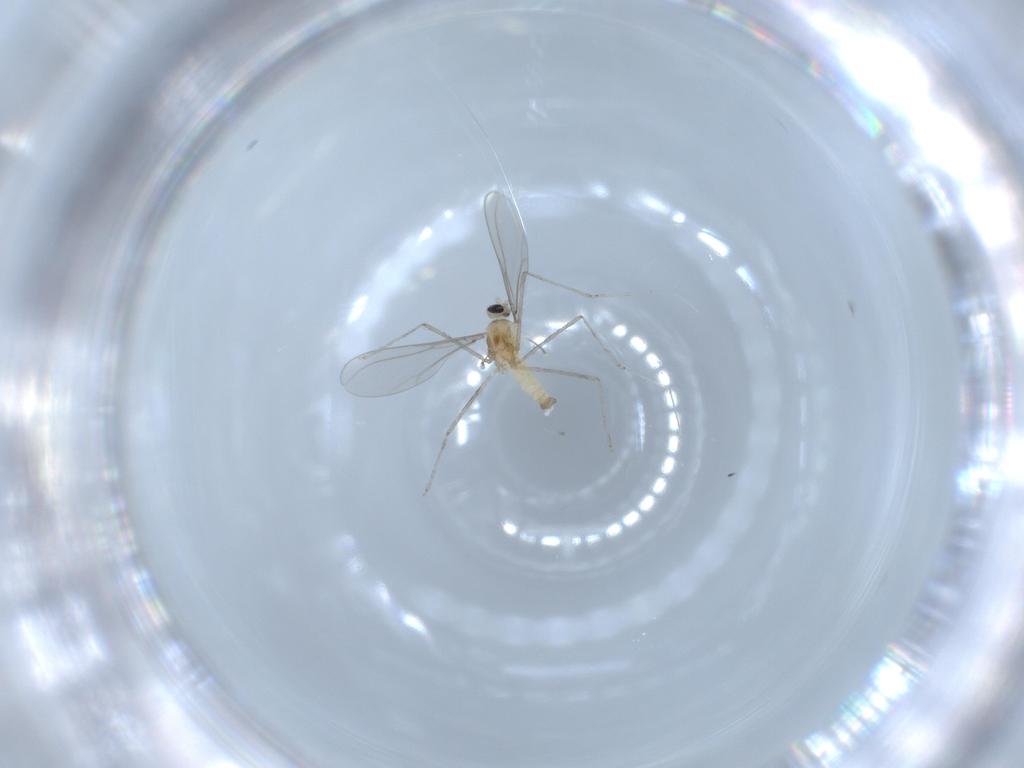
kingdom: Animalia
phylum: Arthropoda
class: Insecta
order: Diptera
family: Cecidomyiidae
